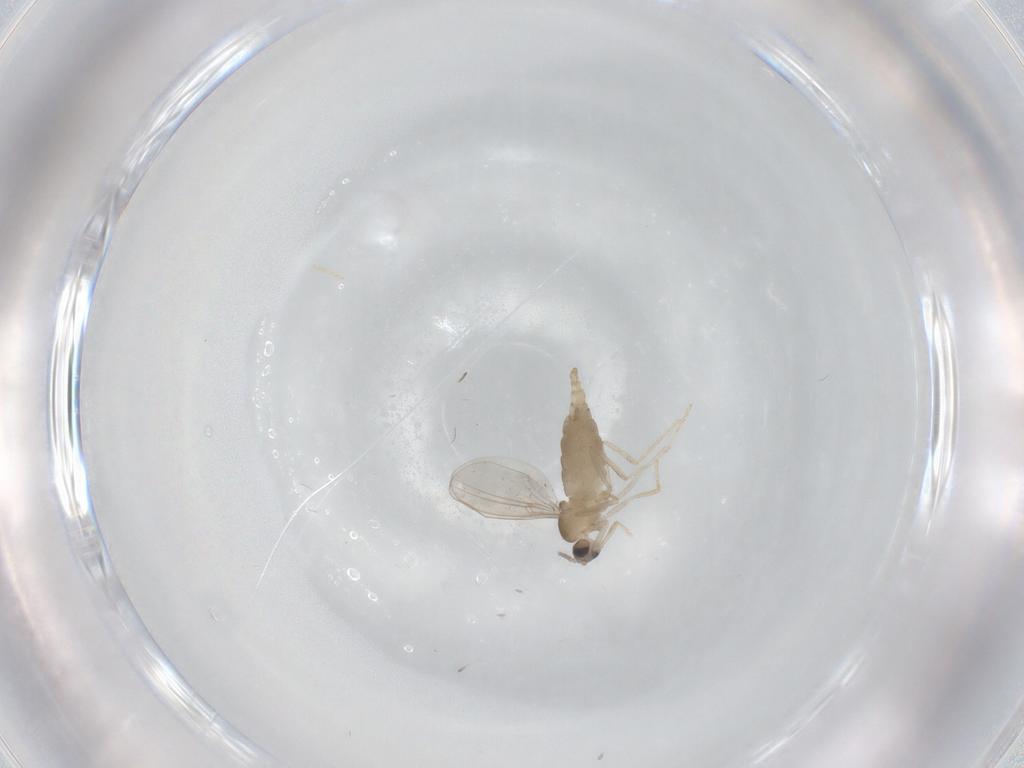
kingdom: Animalia
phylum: Arthropoda
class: Insecta
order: Diptera
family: Cecidomyiidae
